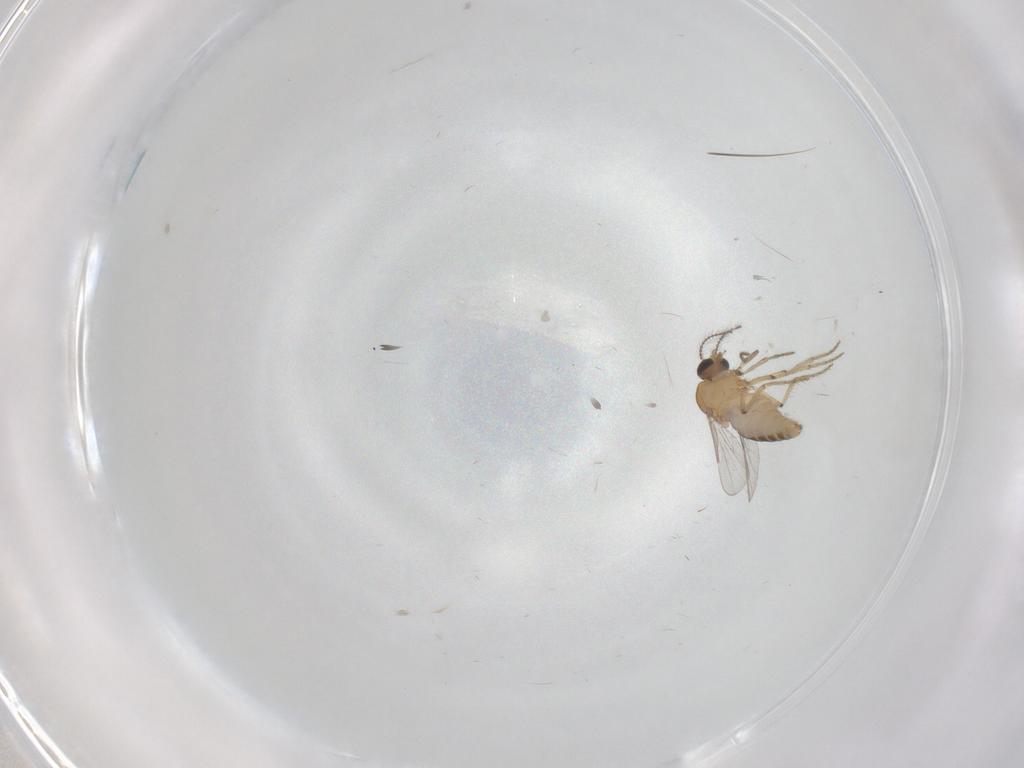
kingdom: Animalia
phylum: Arthropoda
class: Insecta
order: Diptera
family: Ceratopogonidae
